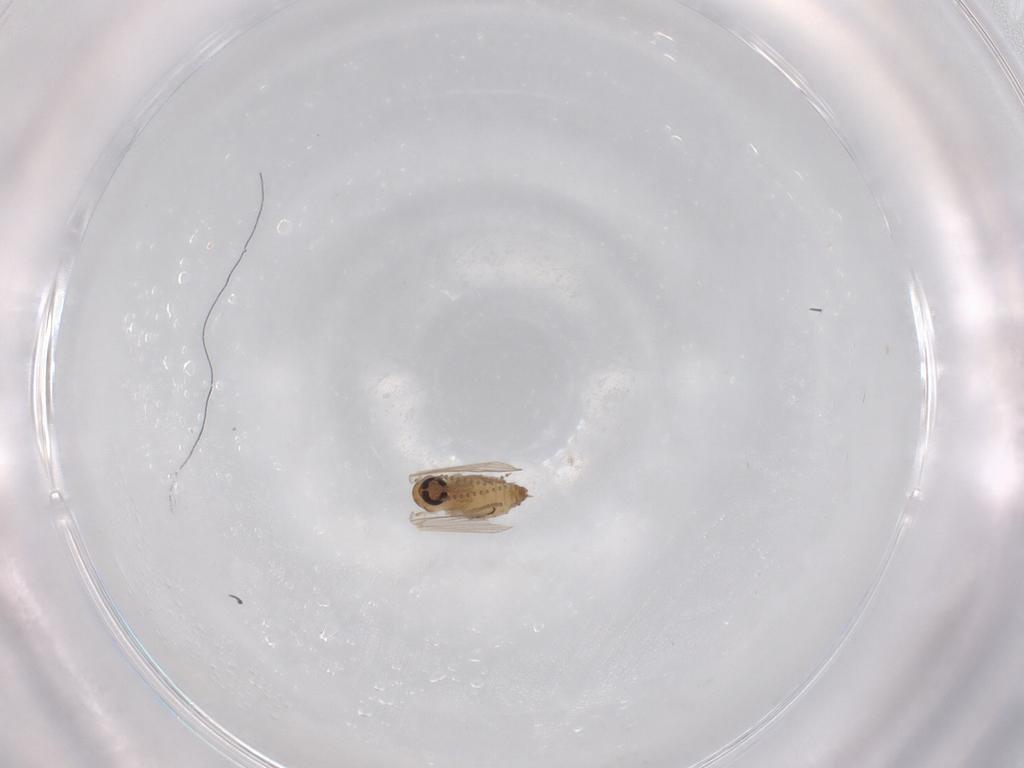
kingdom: Animalia
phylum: Arthropoda
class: Insecta
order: Diptera
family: Psychodidae
